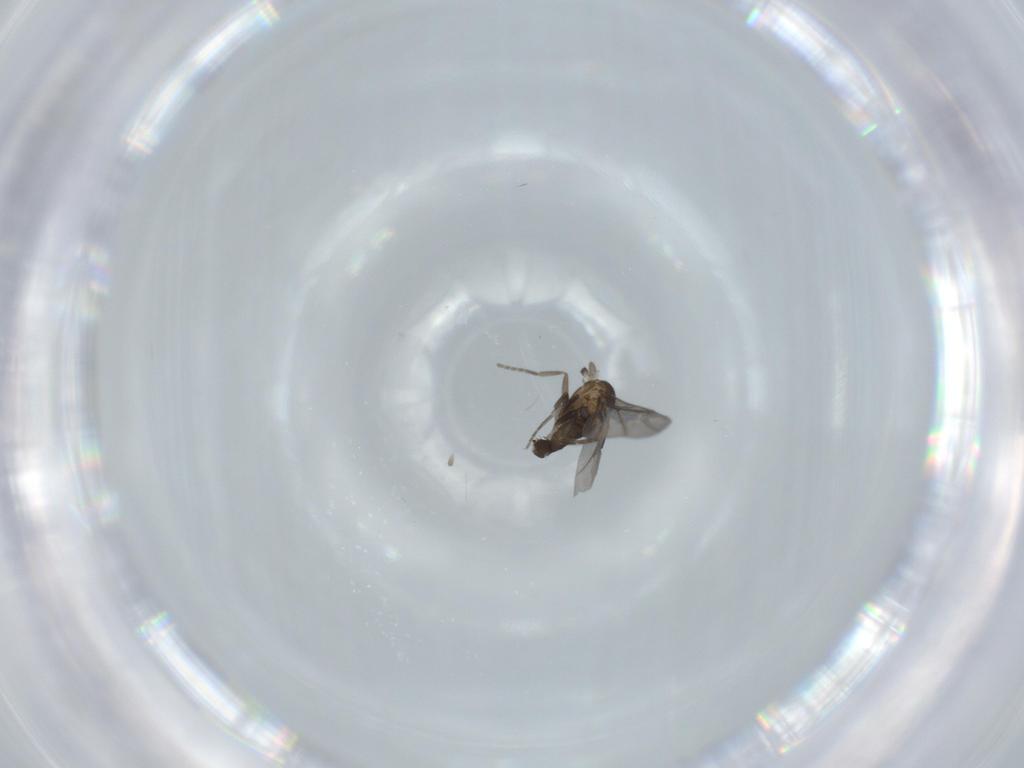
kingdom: Animalia
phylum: Arthropoda
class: Insecta
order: Diptera
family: Phoridae
